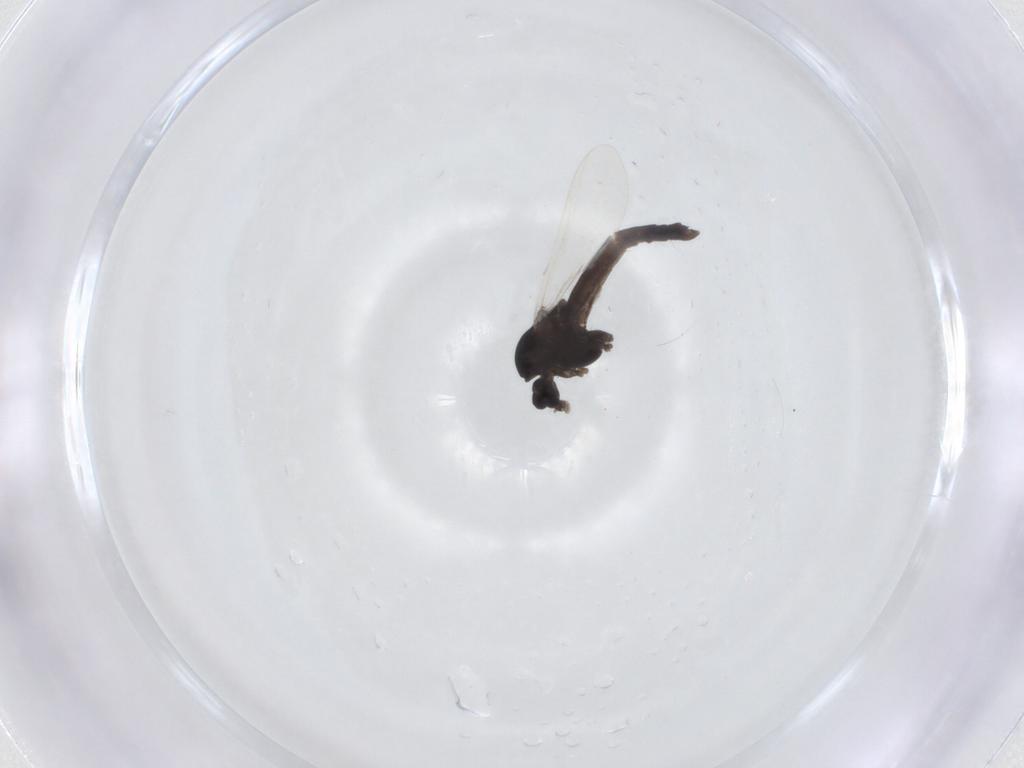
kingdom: Animalia
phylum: Arthropoda
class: Insecta
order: Diptera
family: Chironomidae
